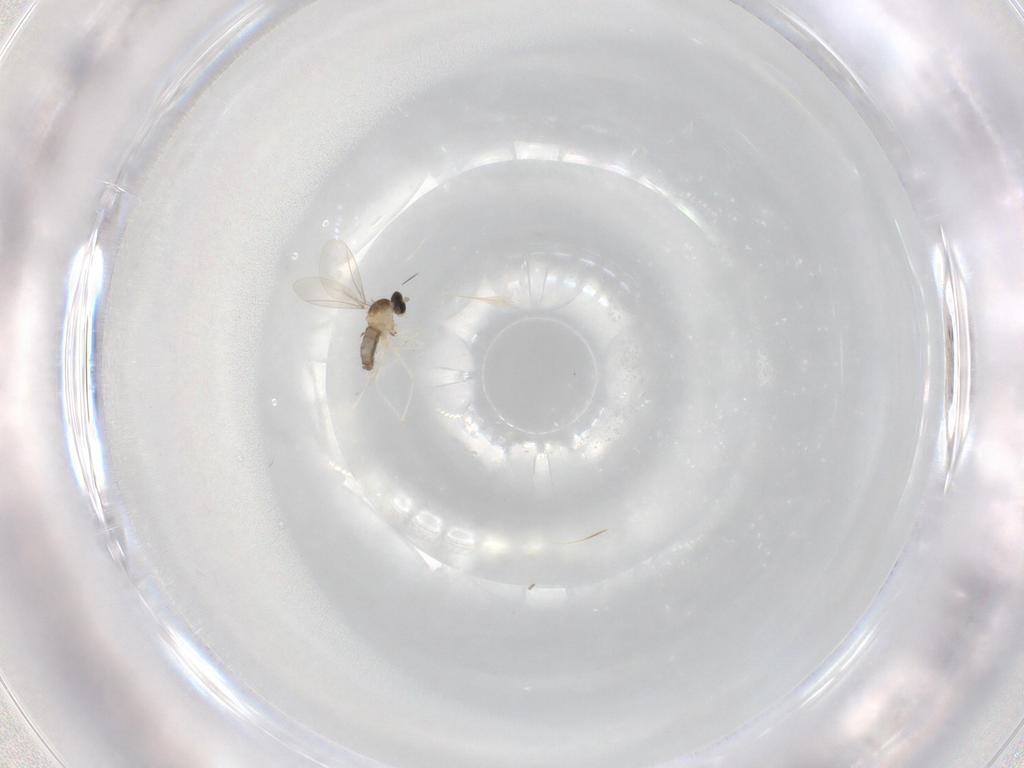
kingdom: Animalia
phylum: Arthropoda
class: Insecta
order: Diptera
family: Cecidomyiidae
